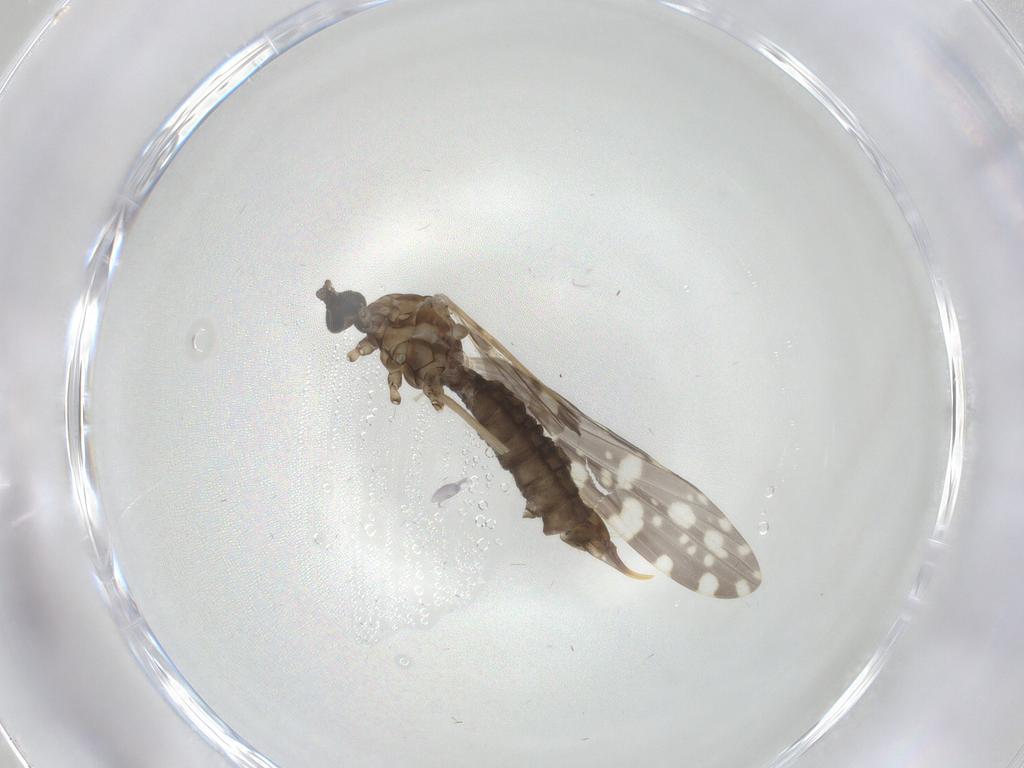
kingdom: Animalia
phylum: Arthropoda
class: Insecta
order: Diptera
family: Limoniidae
